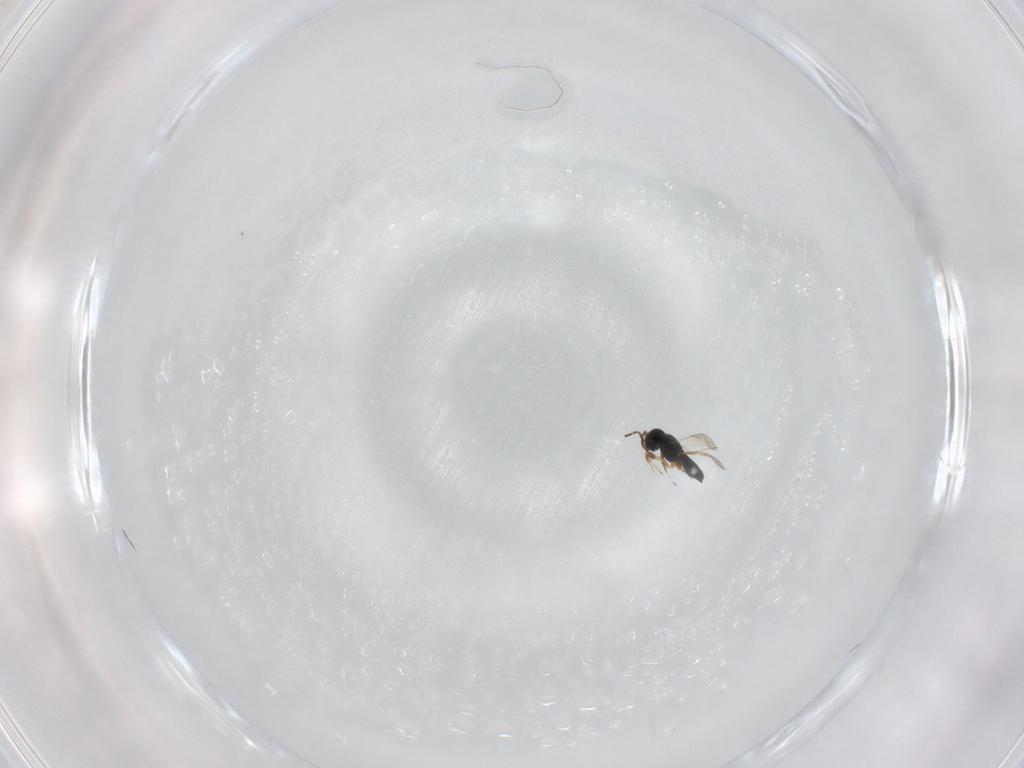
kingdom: Animalia
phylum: Arthropoda
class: Insecta
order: Hymenoptera
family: Scelionidae
